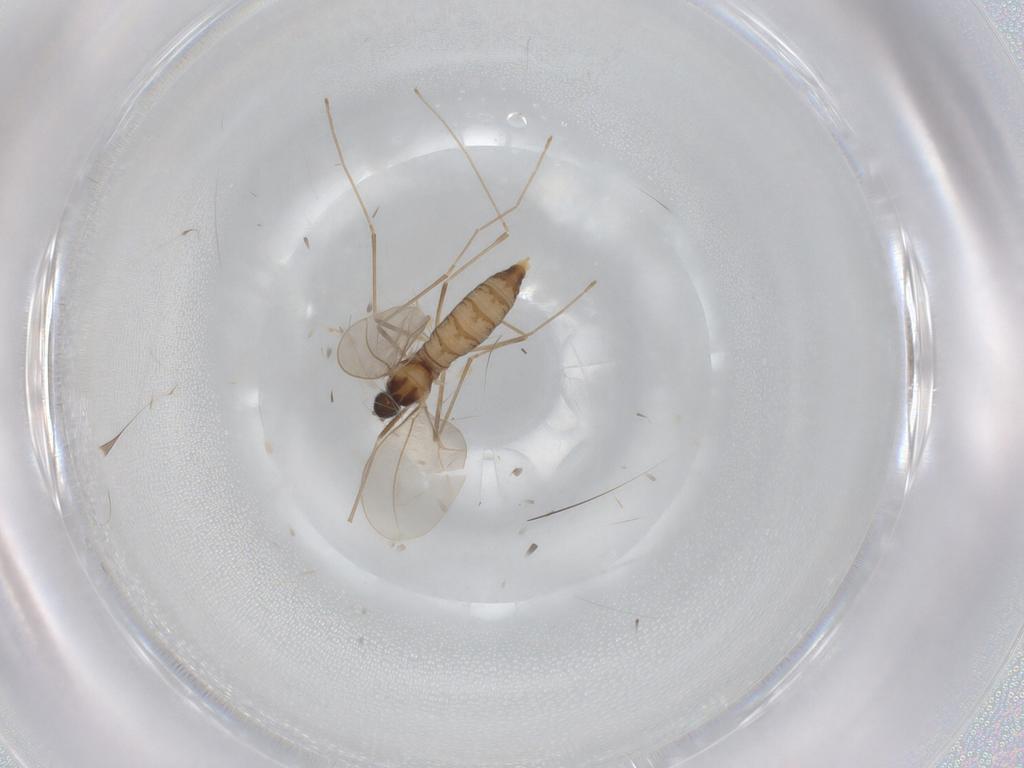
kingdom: Animalia
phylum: Arthropoda
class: Insecta
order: Diptera
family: Cecidomyiidae
